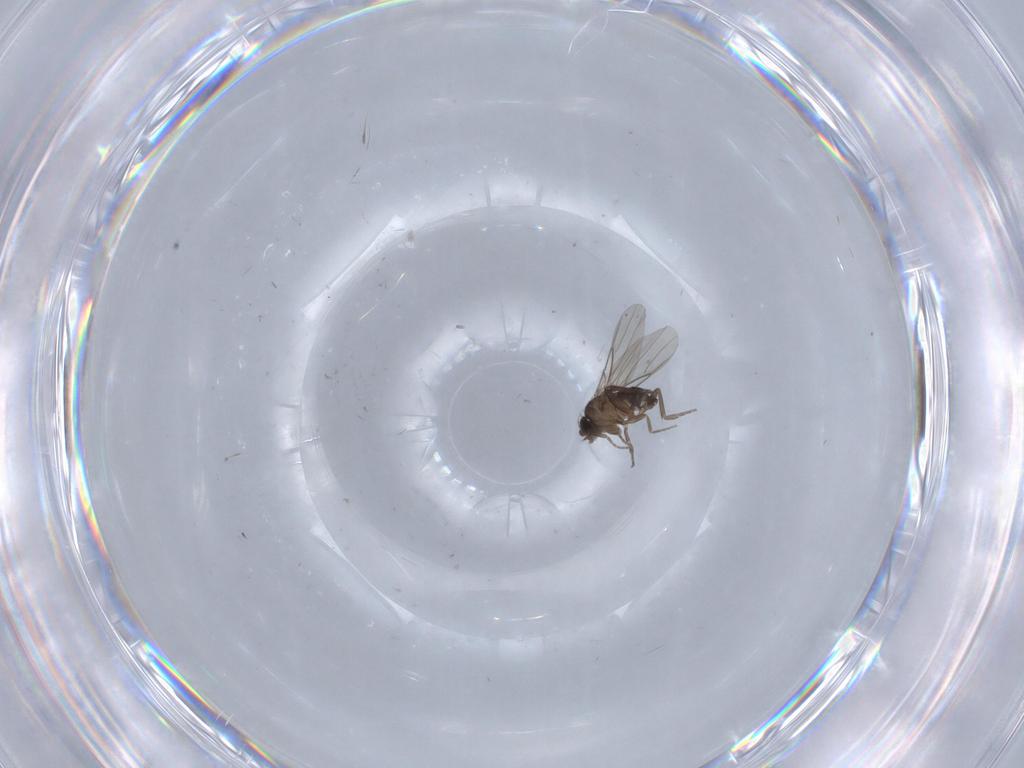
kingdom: Animalia
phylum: Arthropoda
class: Insecta
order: Diptera
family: Phoridae
